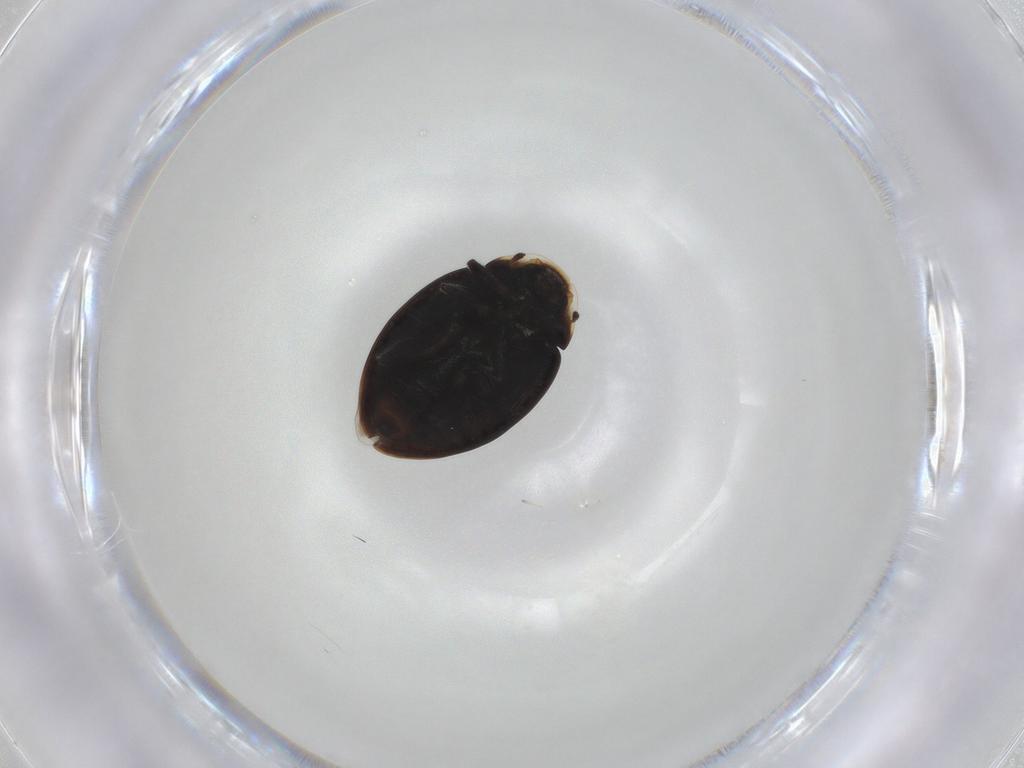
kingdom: Animalia
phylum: Arthropoda
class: Insecta
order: Coleoptera
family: Coccinellidae
